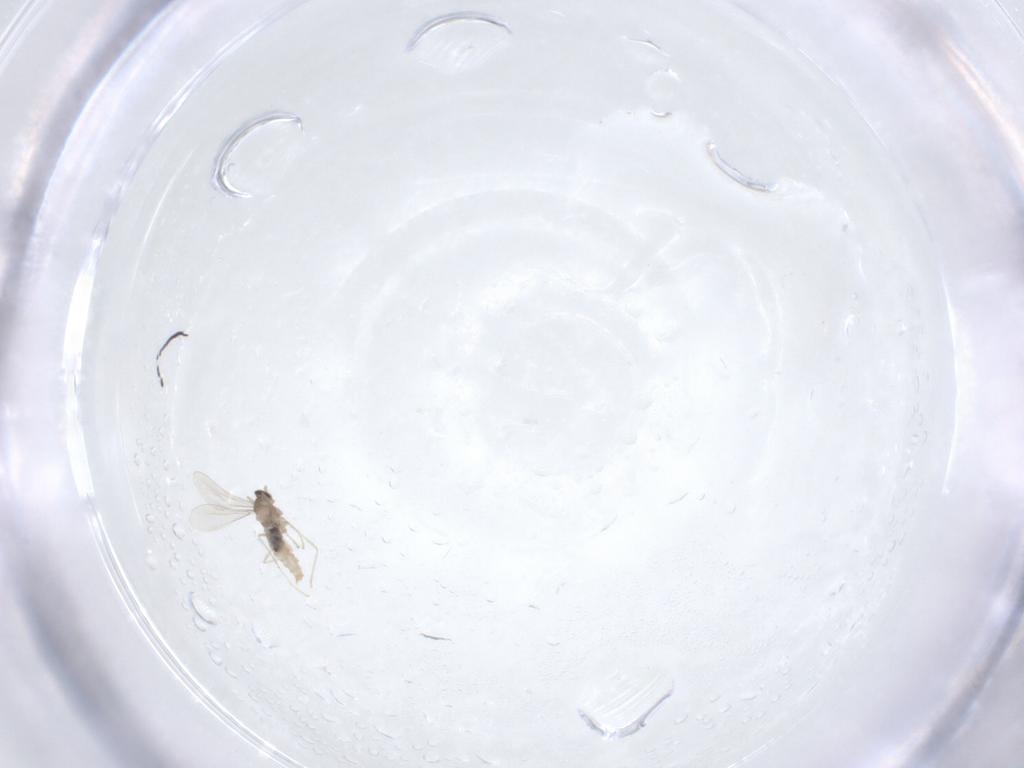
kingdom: Animalia
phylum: Arthropoda
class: Insecta
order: Diptera
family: Cecidomyiidae
